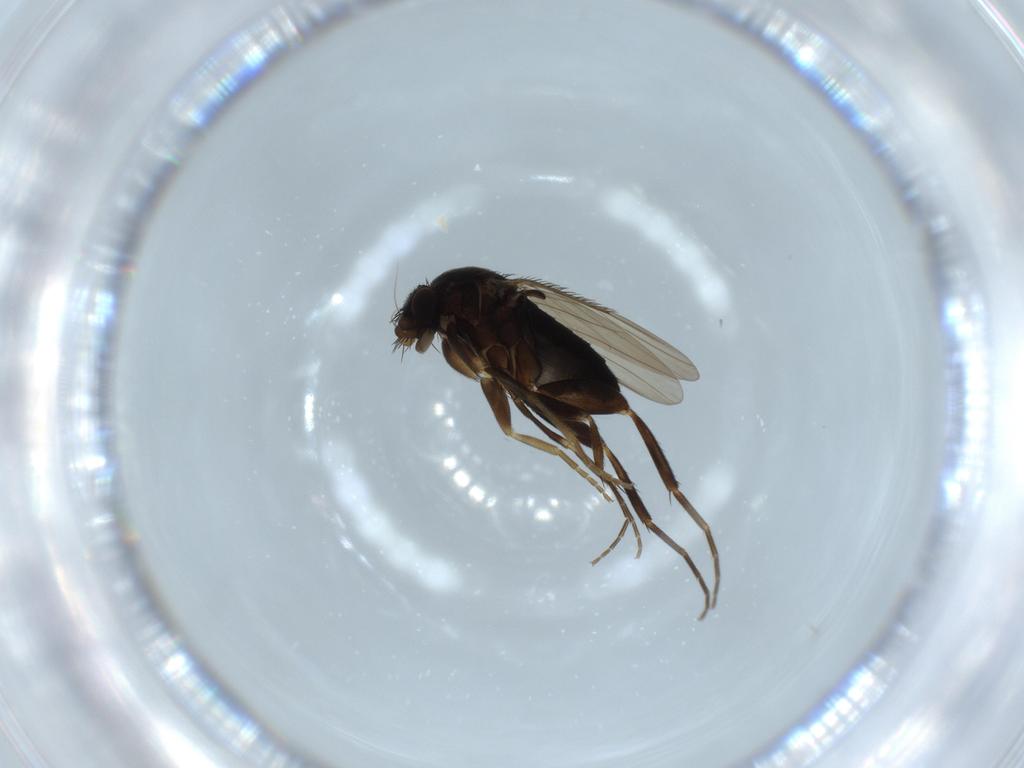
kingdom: Animalia
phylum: Arthropoda
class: Insecta
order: Diptera
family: Phoridae
